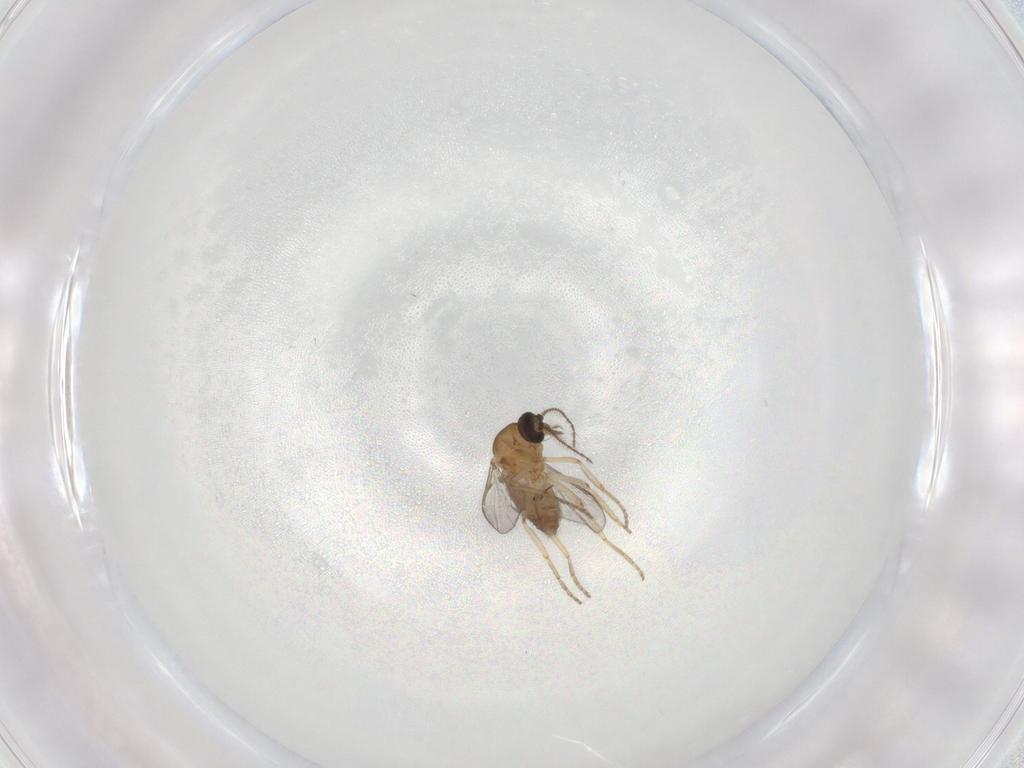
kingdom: Animalia
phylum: Arthropoda
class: Insecta
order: Diptera
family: Ceratopogonidae
